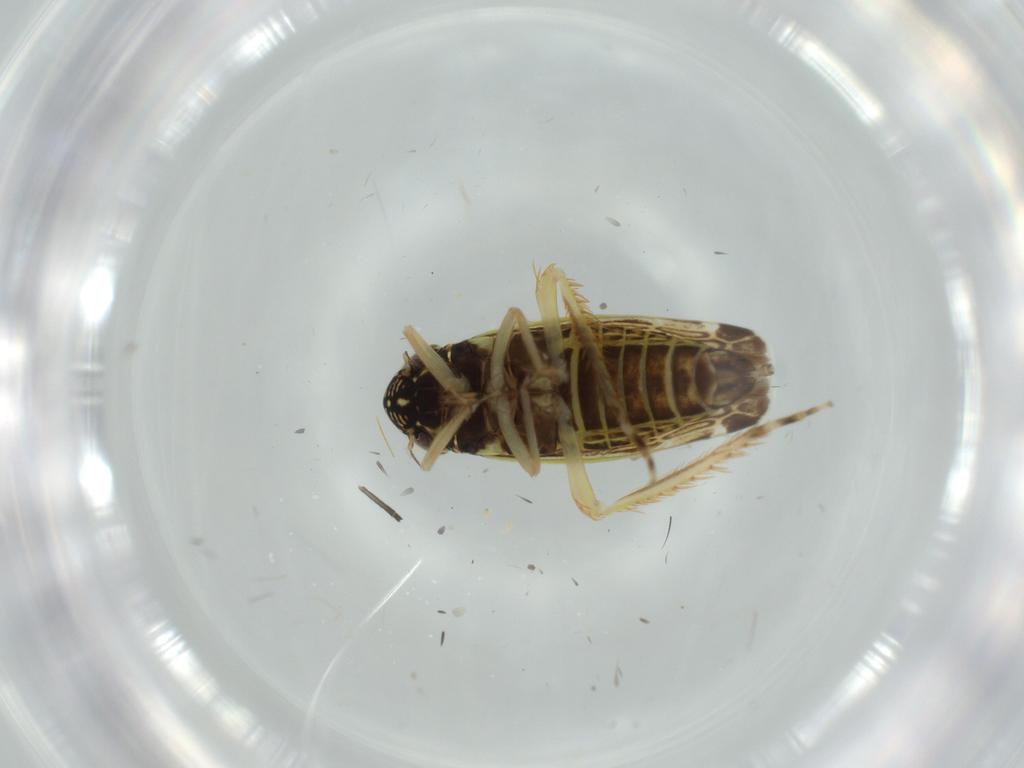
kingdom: Animalia
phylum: Arthropoda
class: Insecta
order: Hemiptera
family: Cicadellidae
